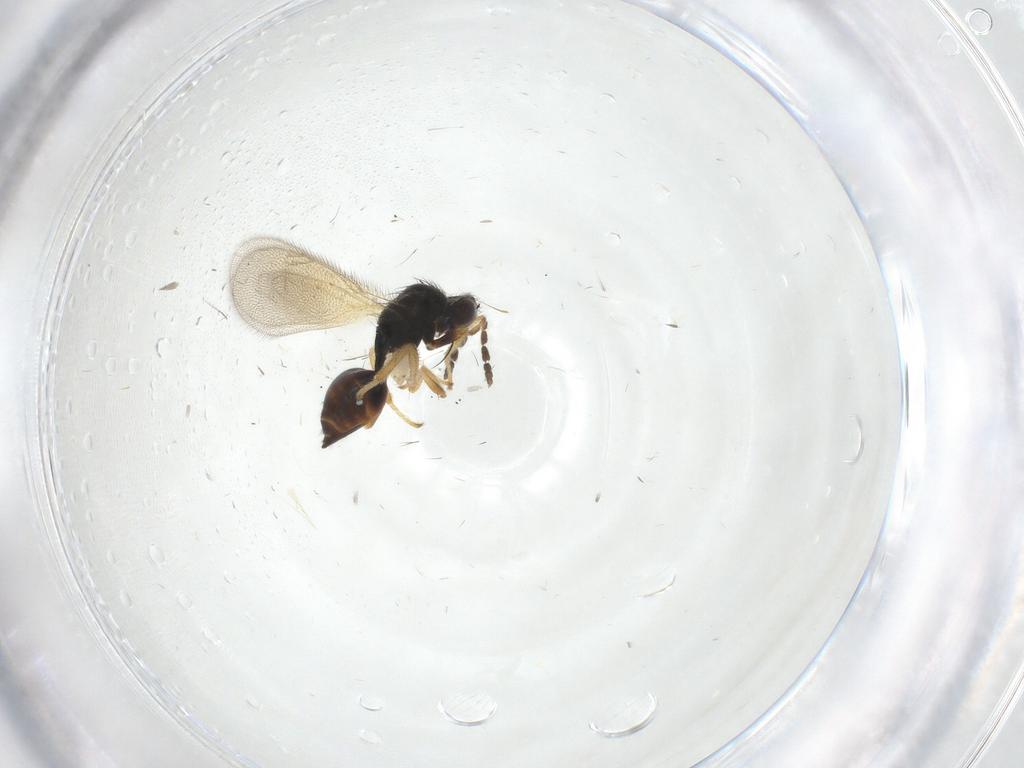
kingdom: Animalia
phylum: Arthropoda
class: Insecta
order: Hymenoptera
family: Eulophidae
